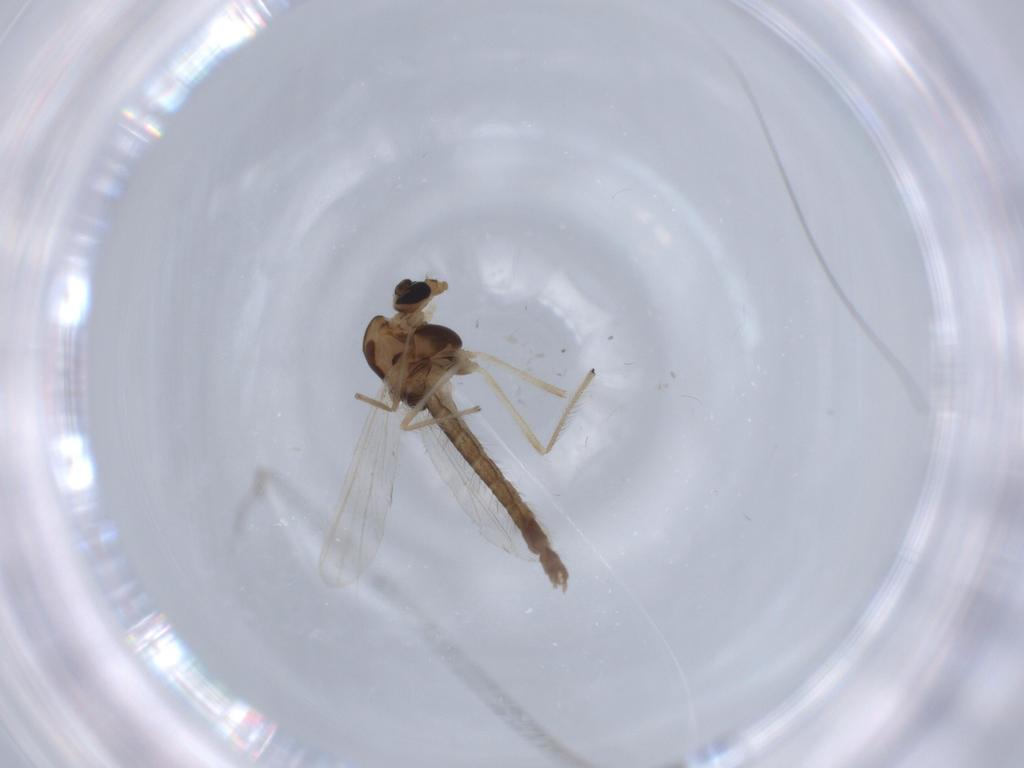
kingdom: Animalia
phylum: Arthropoda
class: Insecta
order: Diptera
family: Chironomidae
